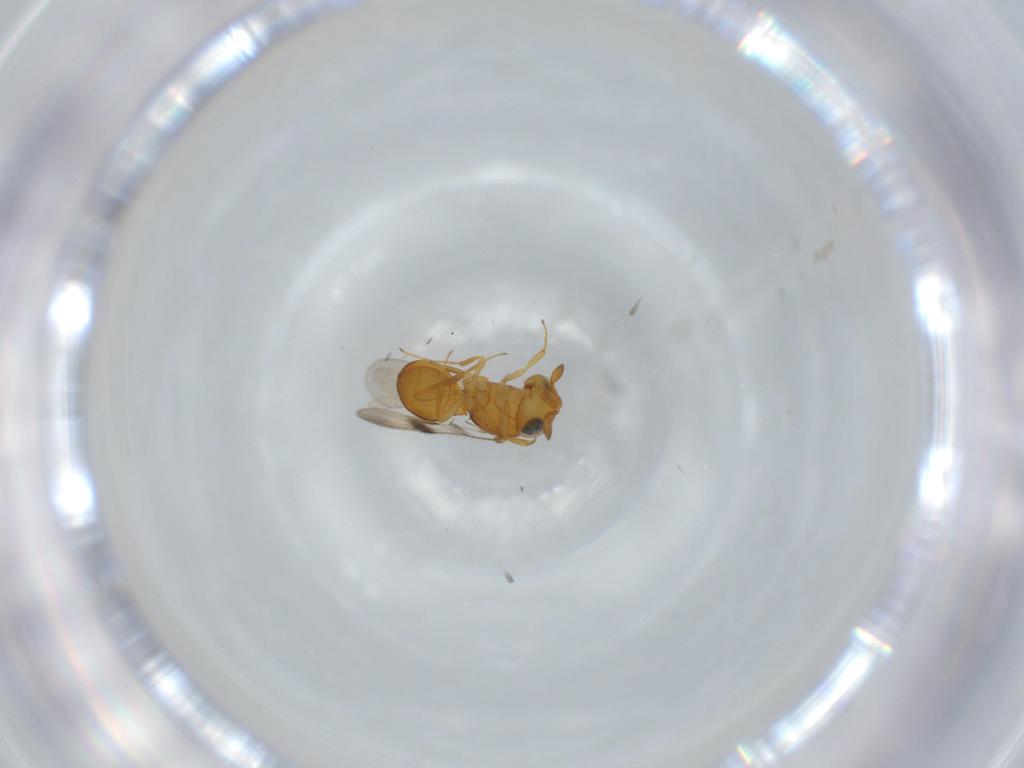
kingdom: Animalia
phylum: Arthropoda
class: Insecta
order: Hymenoptera
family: Scelionidae
